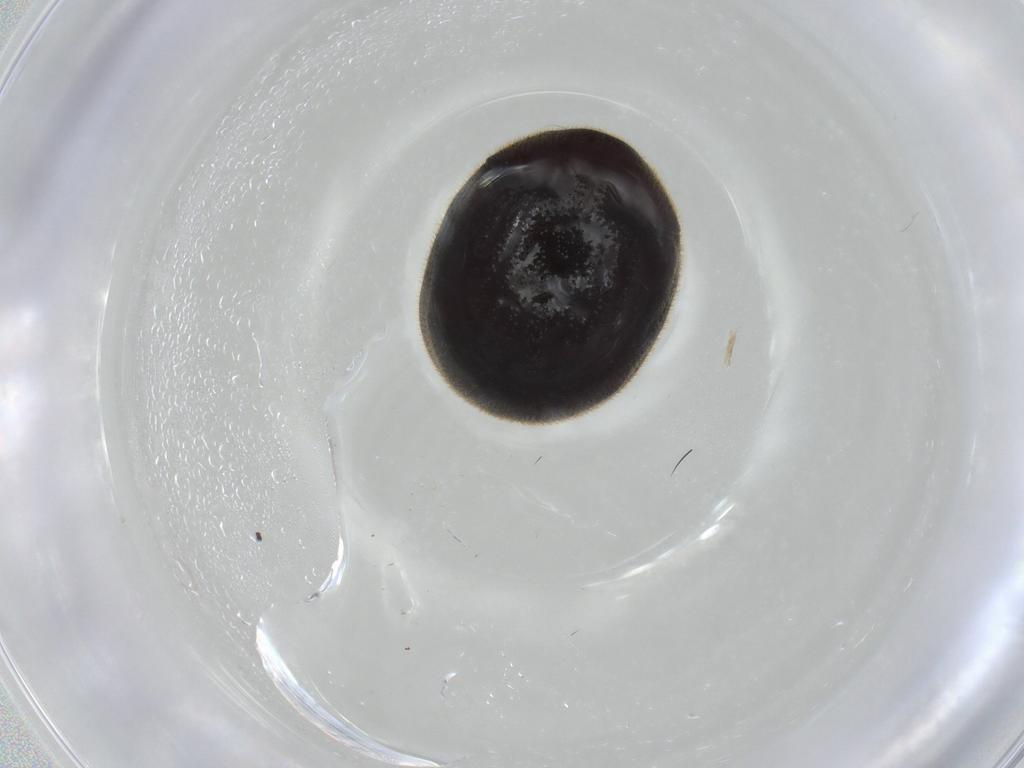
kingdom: Animalia
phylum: Arthropoda
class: Insecta
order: Coleoptera
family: Ptinidae
